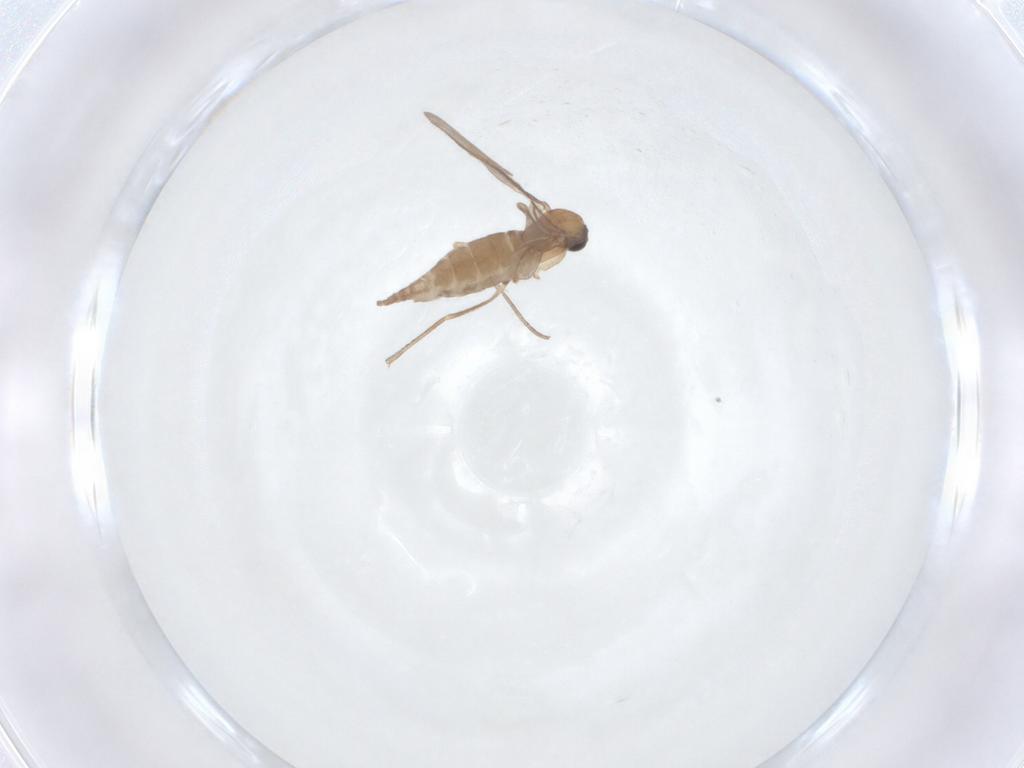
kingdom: Animalia
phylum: Arthropoda
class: Insecta
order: Diptera
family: Sciaridae
